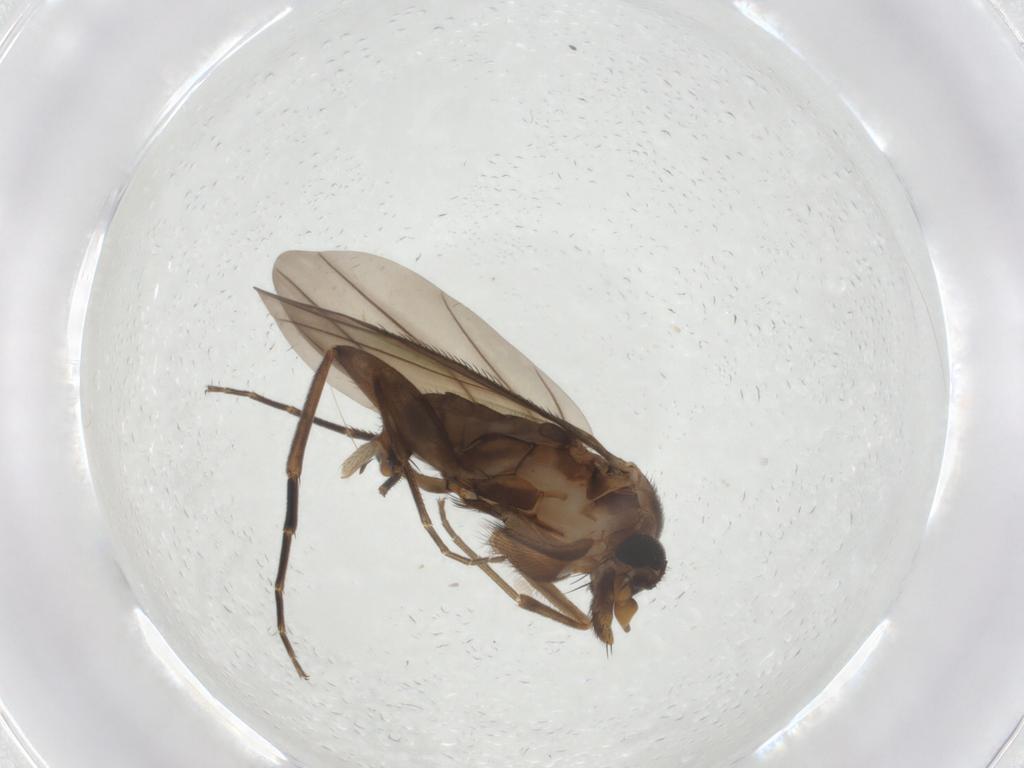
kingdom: Animalia
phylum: Arthropoda
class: Insecta
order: Diptera
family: Phoridae
